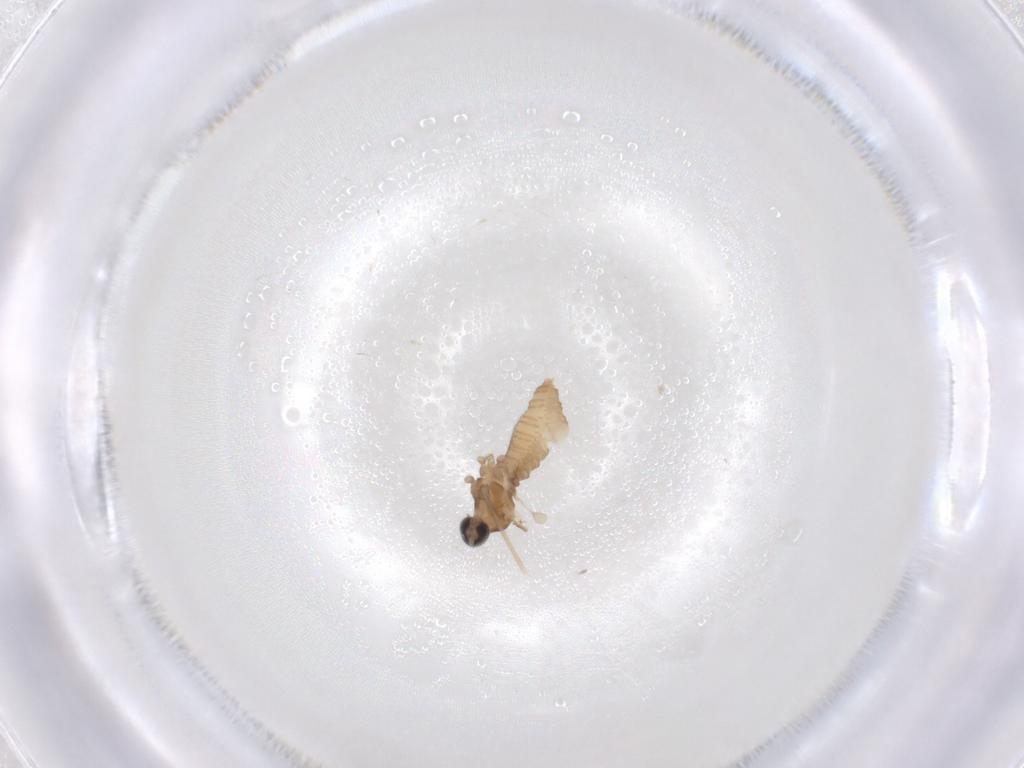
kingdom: Animalia
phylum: Arthropoda
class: Insecta
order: Diptera
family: Cecidomyiidae
